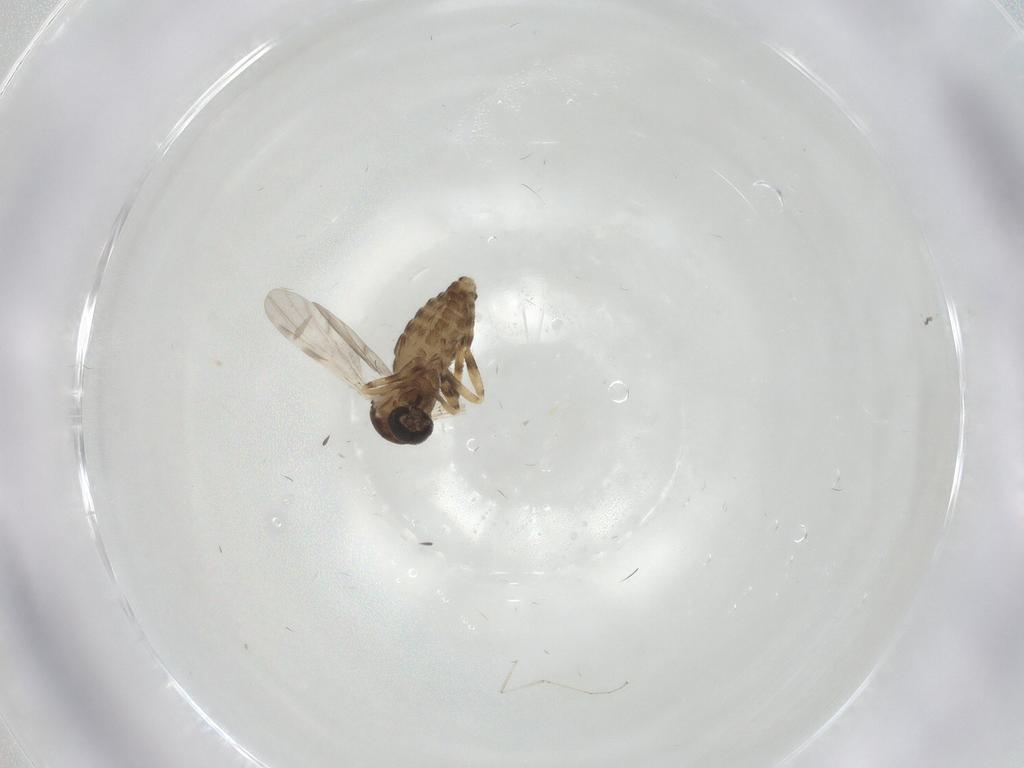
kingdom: Animalia
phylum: Arthropoda
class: Insecta
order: Diptera
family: Ceratopogonidae
